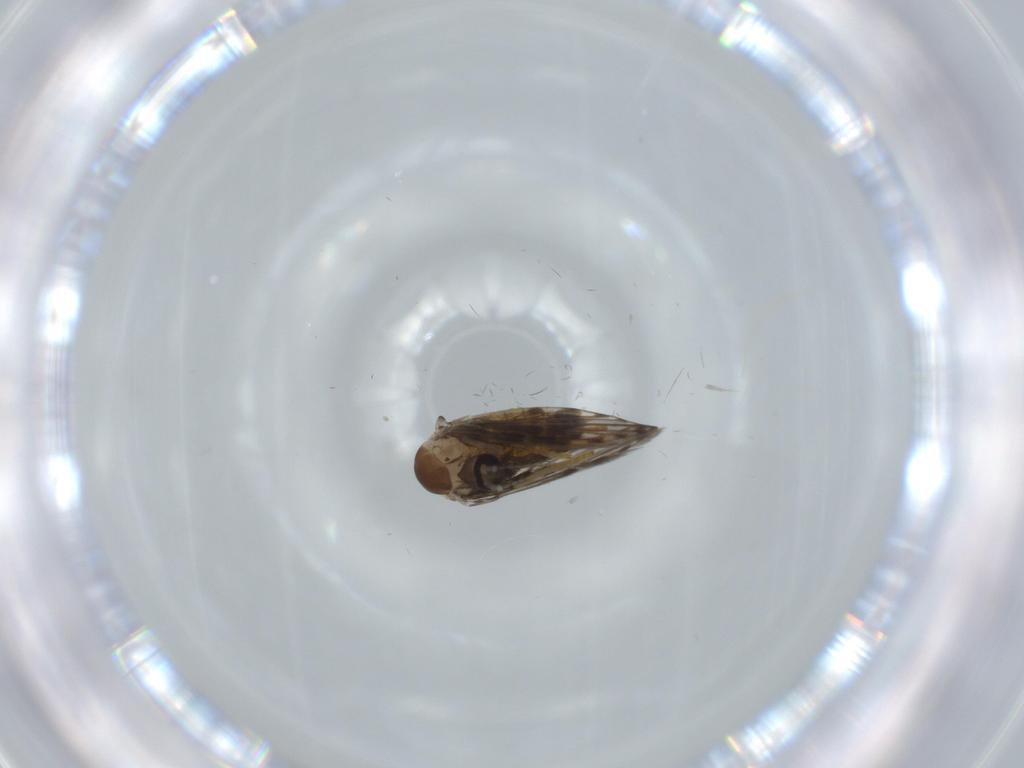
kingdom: Animalia
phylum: Arthropoda
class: Insecta
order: Diptera
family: Psychodidae
